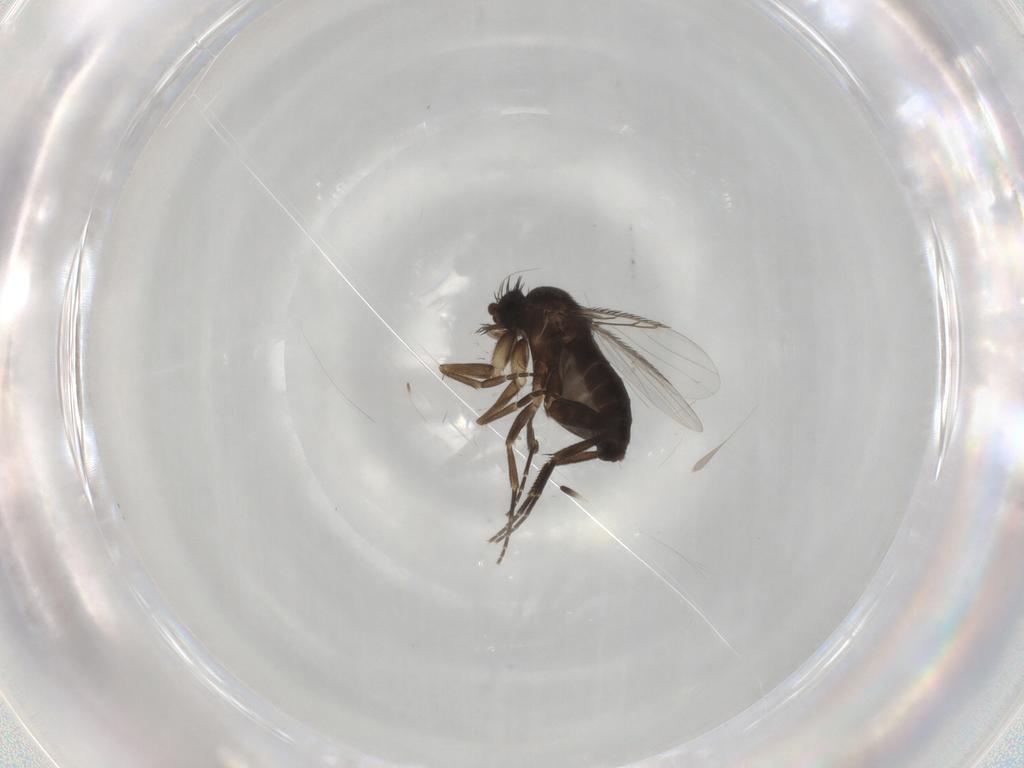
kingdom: Animalia
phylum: Arthropoda
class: Insecta
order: Diptera
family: Phoridae
